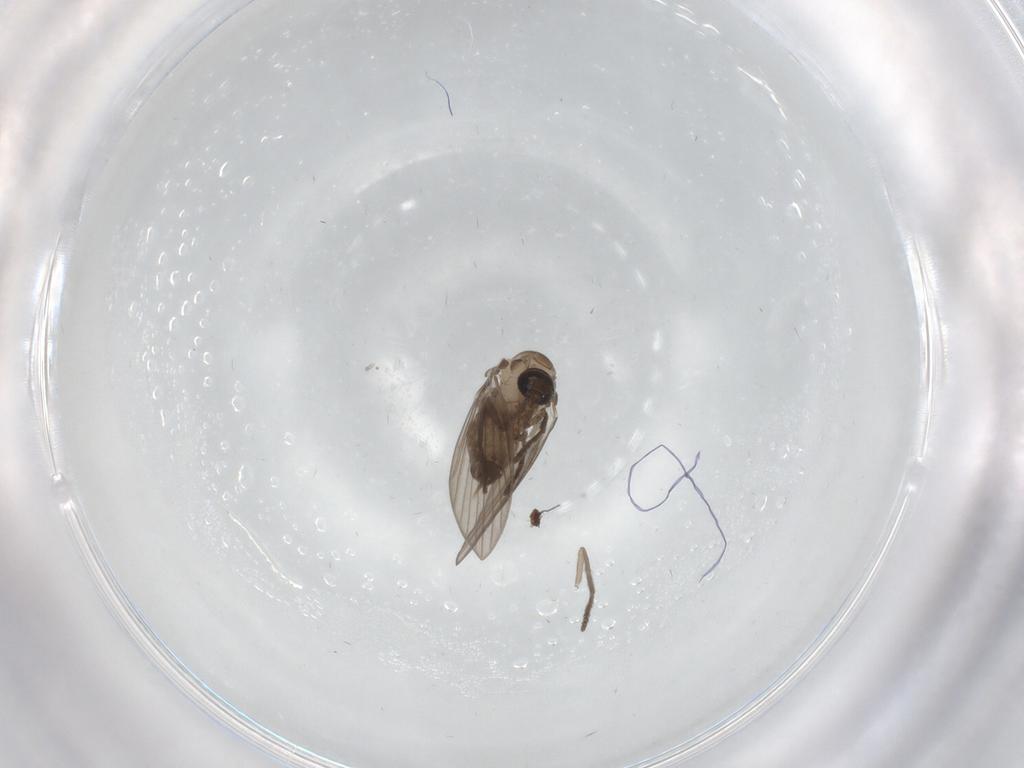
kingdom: Animalia
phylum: Arthropoda
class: Insecta
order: Diptera
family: Psychodidae
